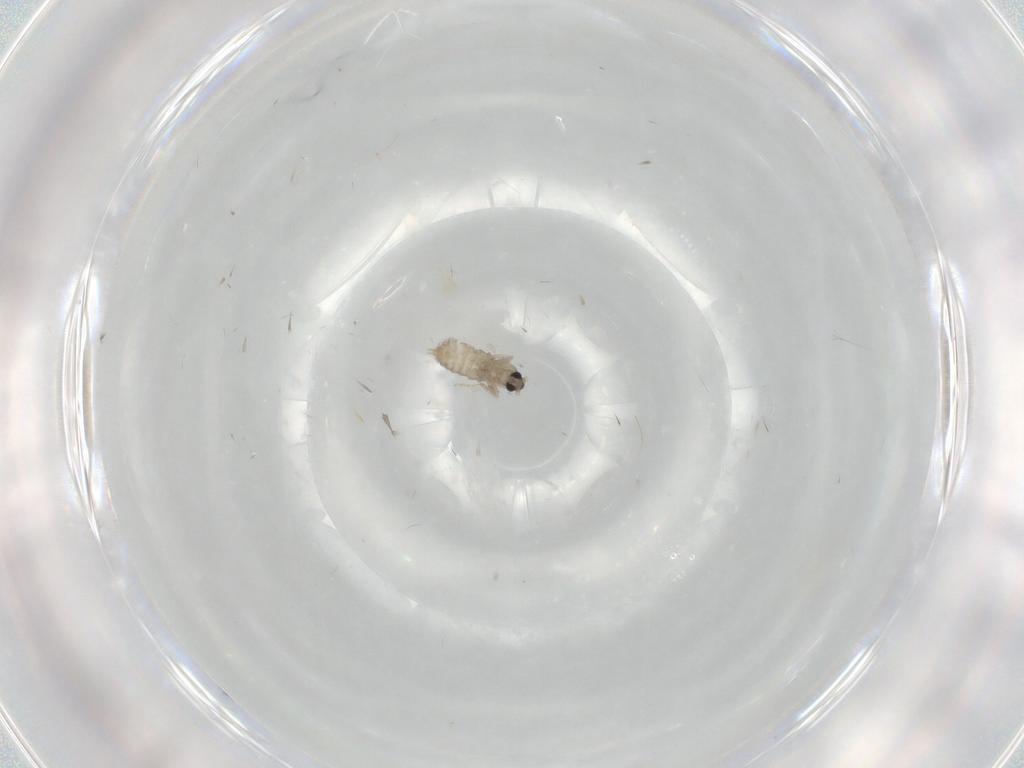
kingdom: Animalia
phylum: Arthropoda
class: Insecta
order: Diptera
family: Cecidomyiidae
